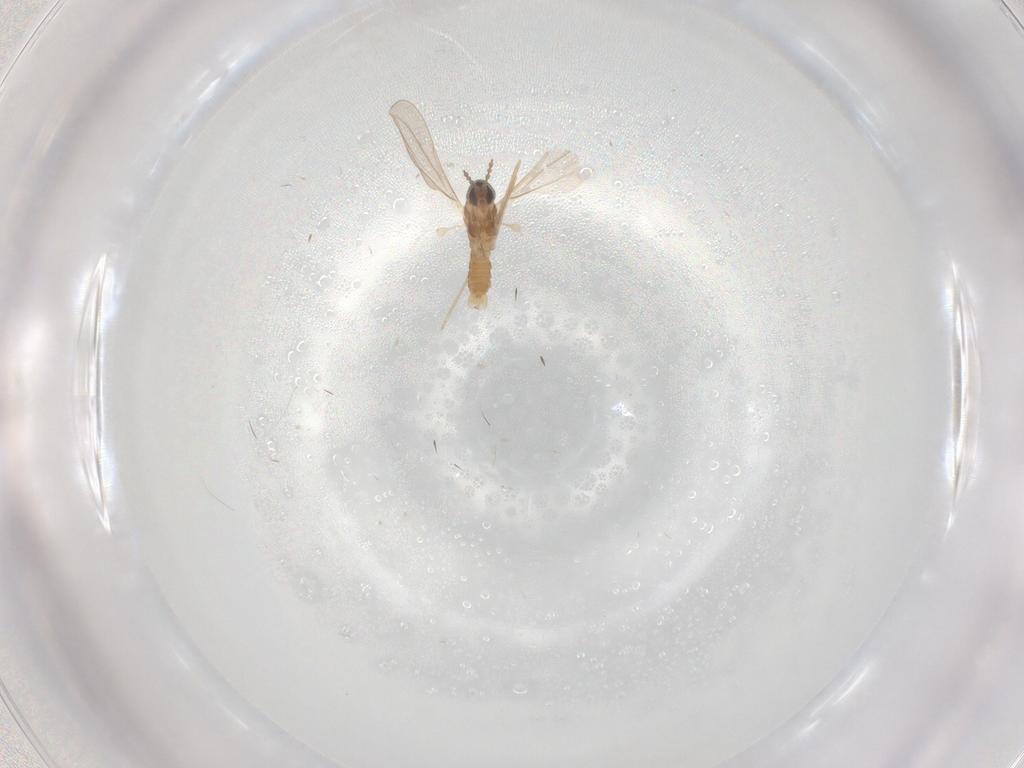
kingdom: Animalia
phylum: Arthropoda
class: Insecta
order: Diptera
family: Cecidomyiidae
